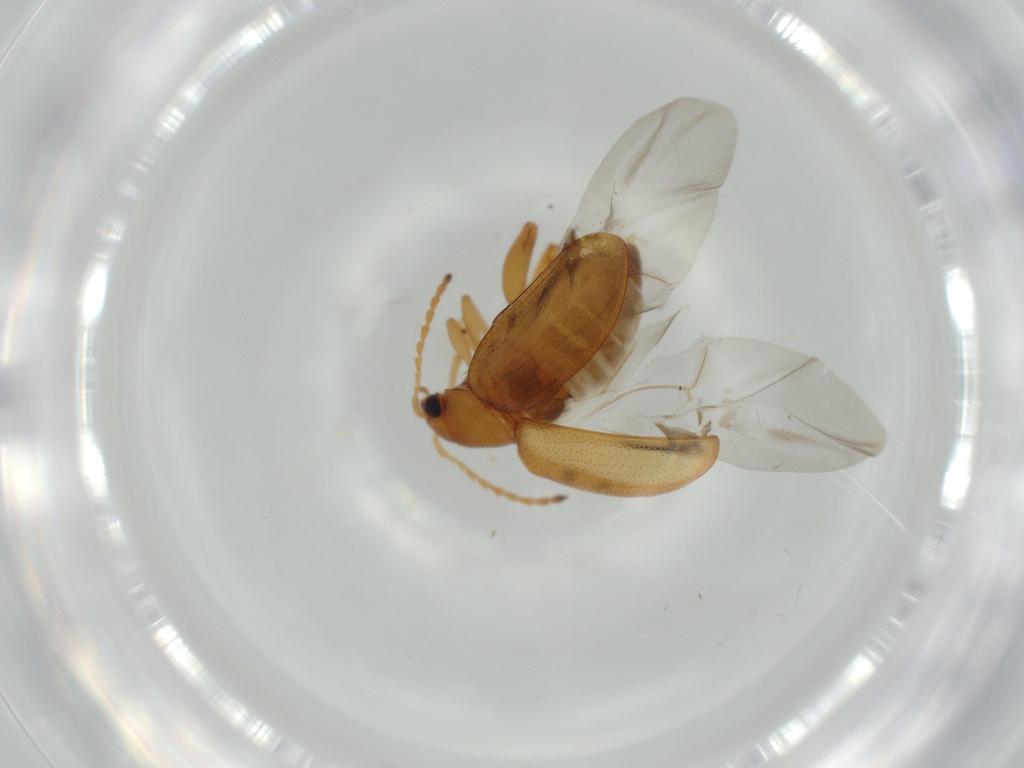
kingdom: Animalia
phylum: Arthropoda
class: Insecta
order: Coleoptera
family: Chrysomelidae
